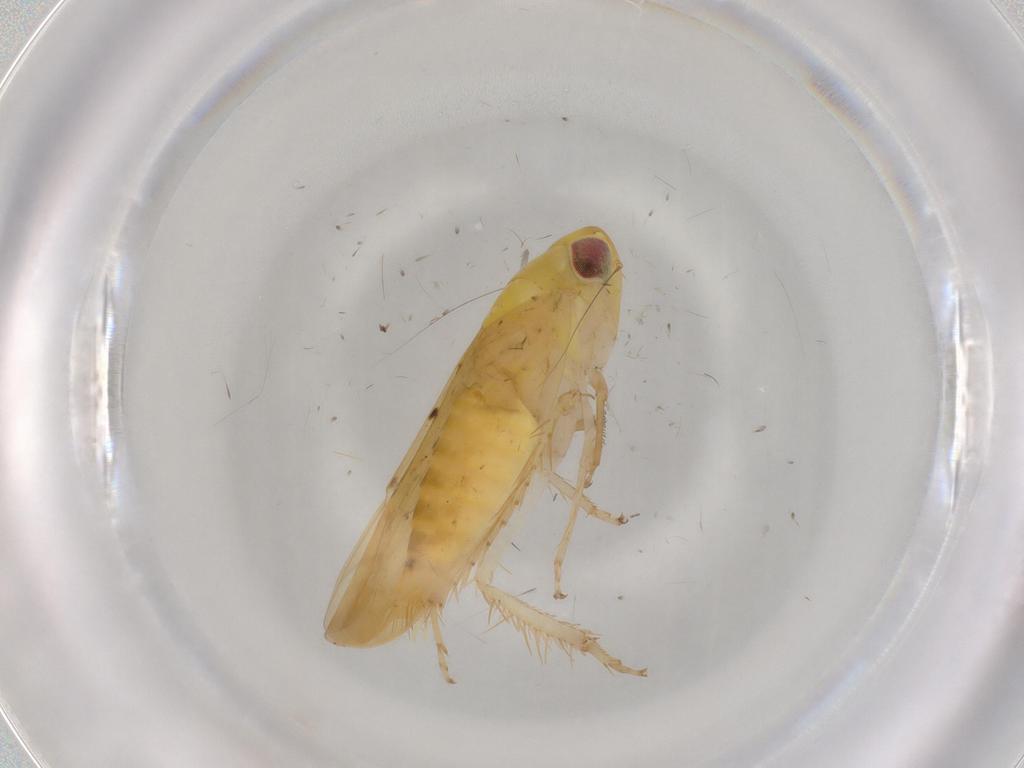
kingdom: Animalia
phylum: Arthropoda
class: Insecta
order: Hemiptera
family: Cicadellidae
